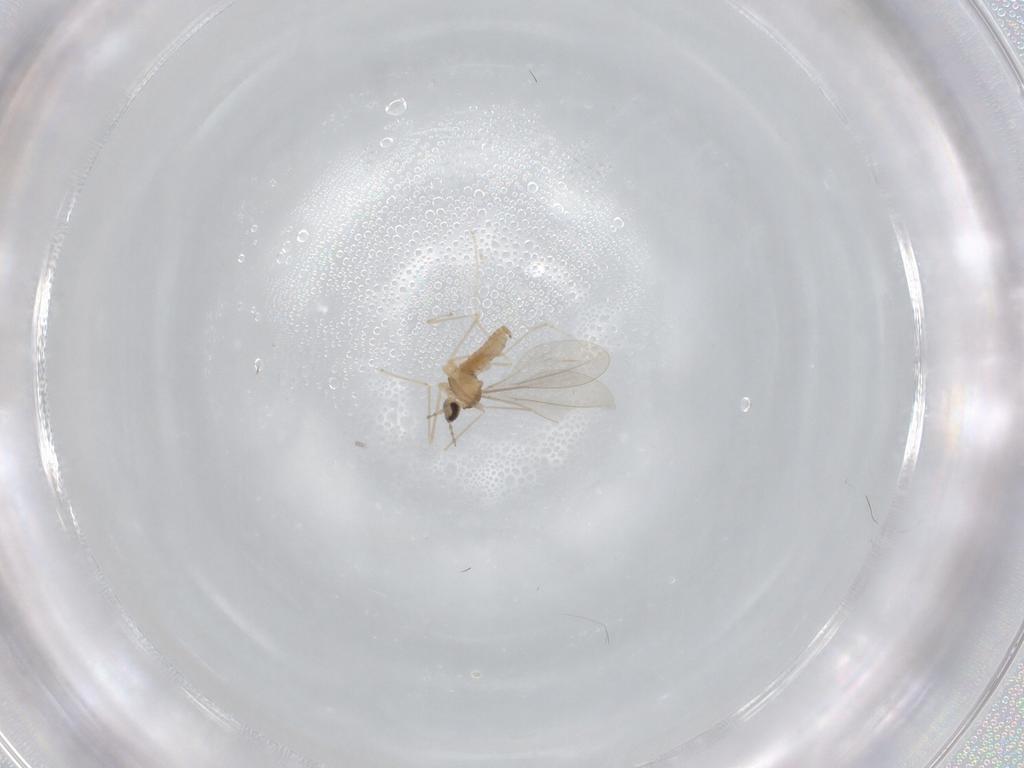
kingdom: Animalia
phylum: Arthropoda
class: Insecta
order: Diptera
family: Cecidomyiidae
